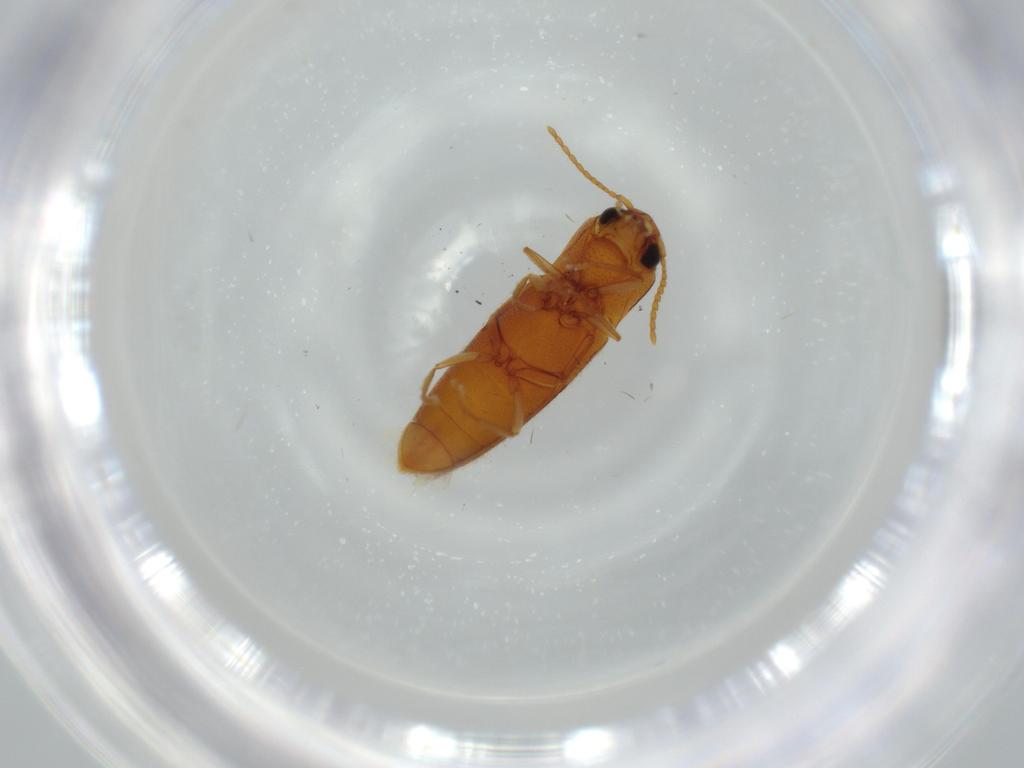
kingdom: Animalia
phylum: Arthropoda
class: Insecta
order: Coleoptera
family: Elateridae
